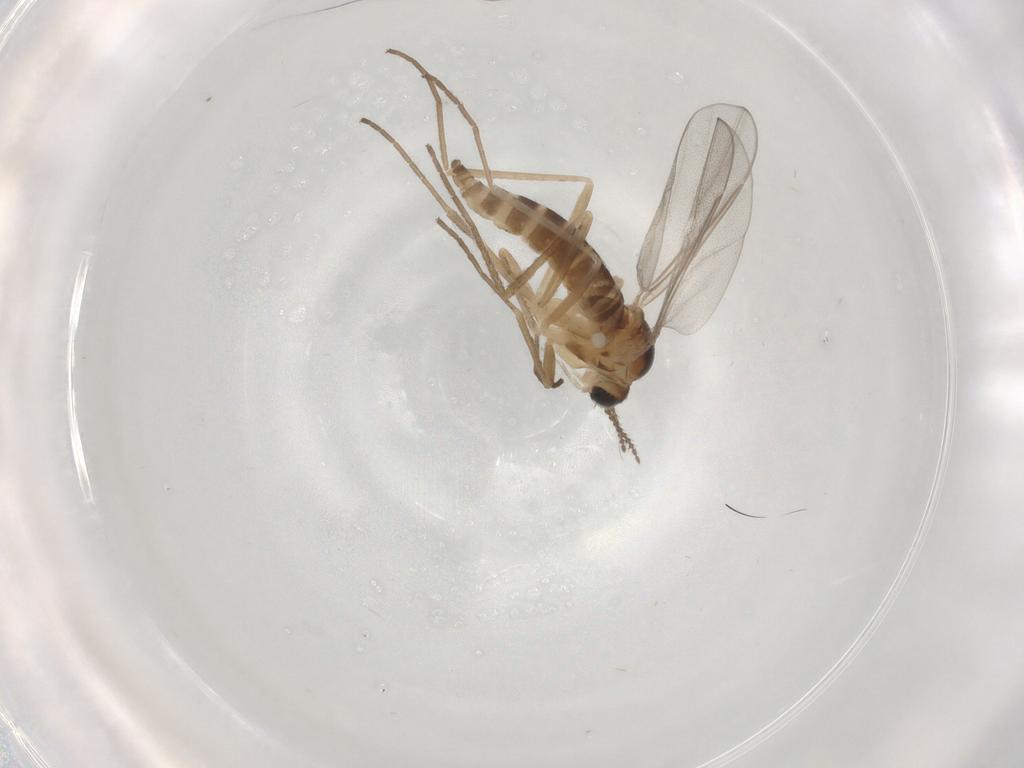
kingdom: Animalia
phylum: Arthropoda
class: Insecta
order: Diptera
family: Cecidomyiidae
